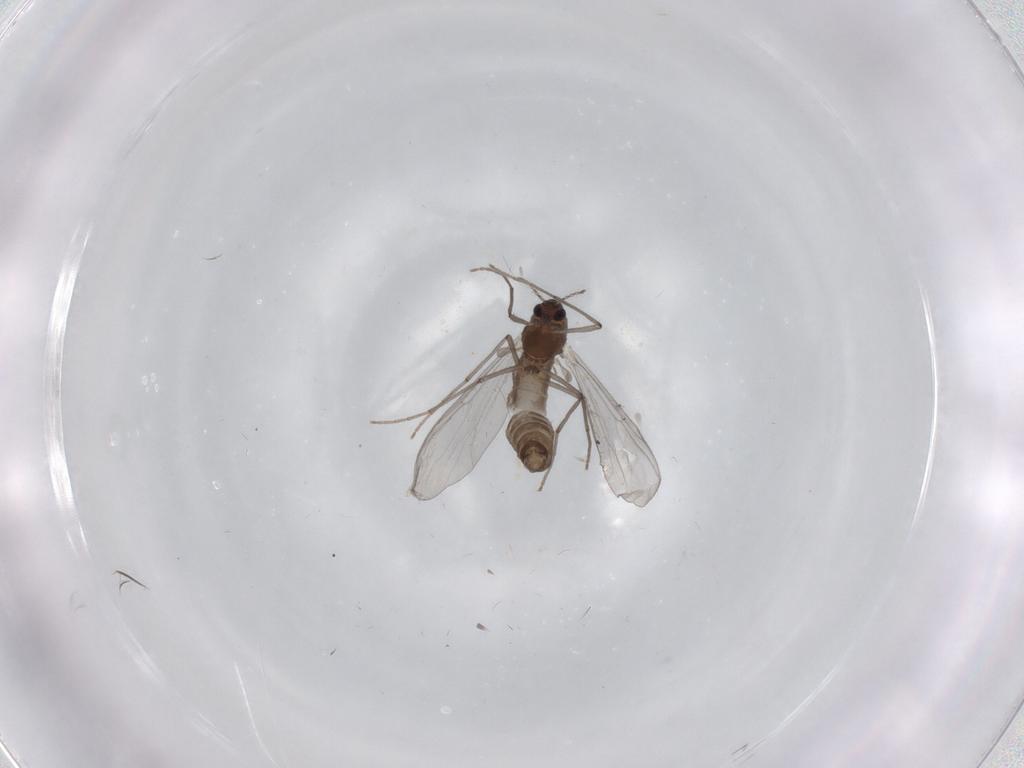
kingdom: Animalia
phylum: Arthropoda
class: Insecta
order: Diptera
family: Chironomidae
